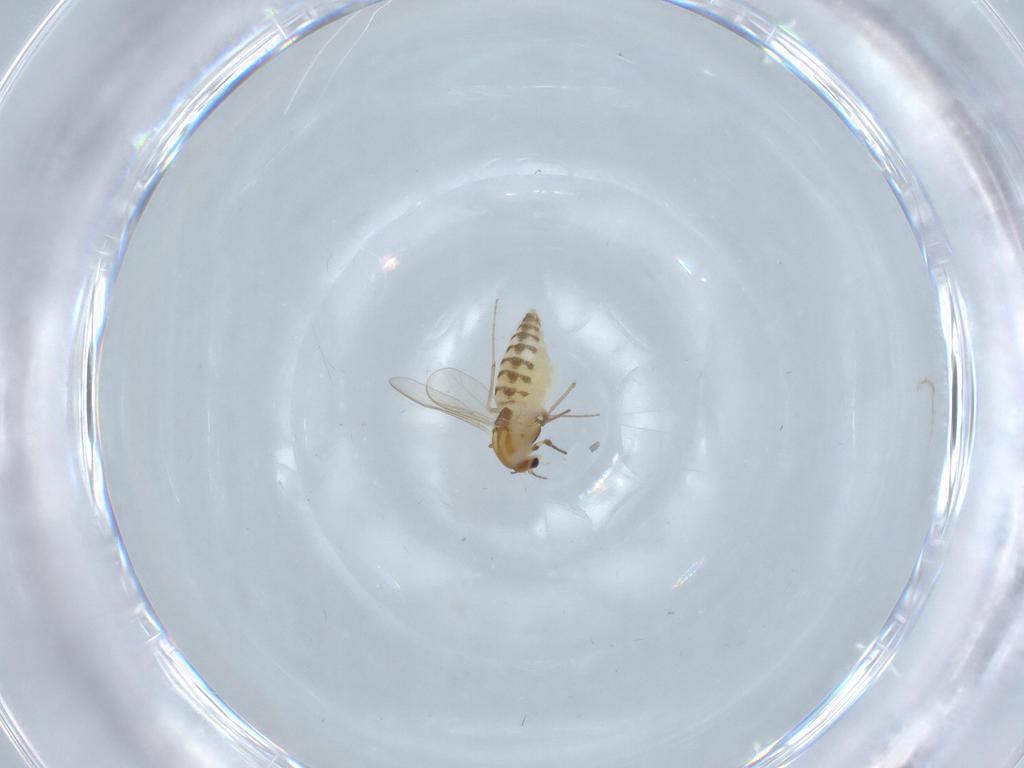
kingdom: Animalia
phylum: Arthropoda
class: Insecta
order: Diptera
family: Chironomidae
